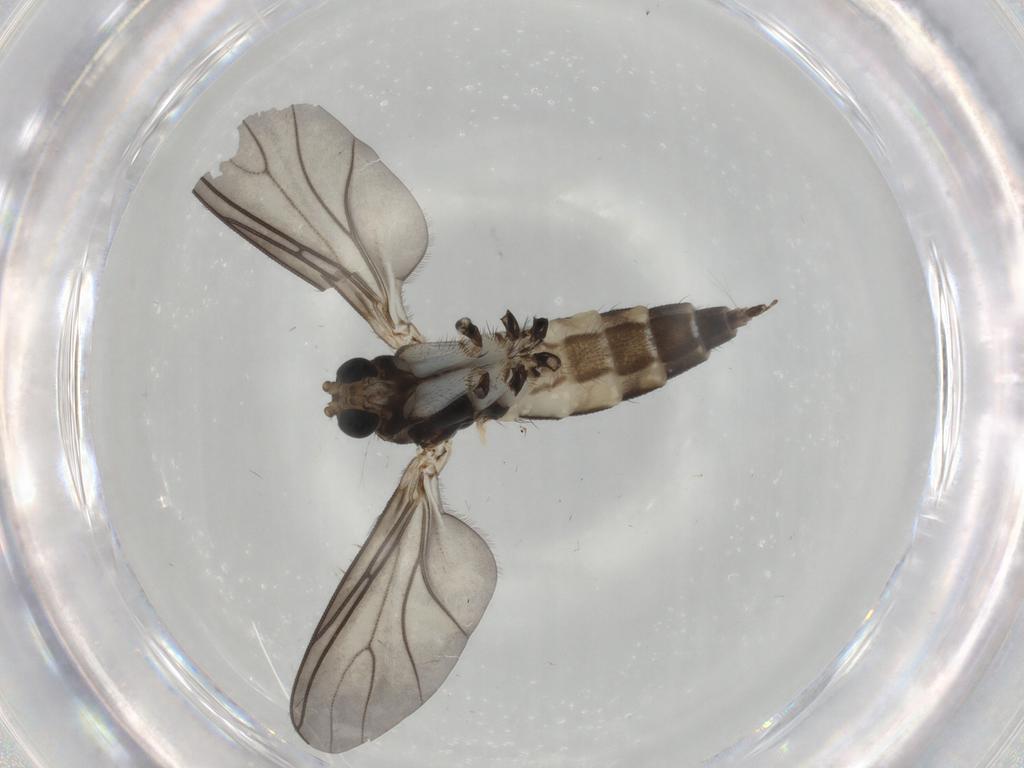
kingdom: Animalia
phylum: Arthropoda
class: Insecta
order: Diptera
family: Sciaridae
